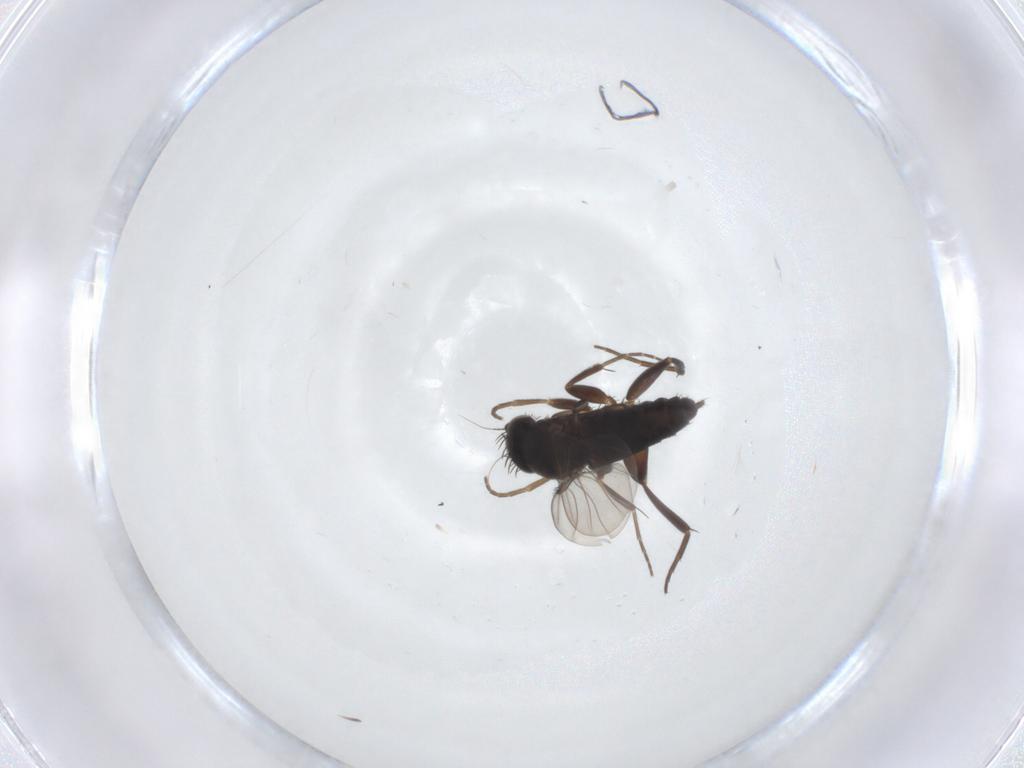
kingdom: Animalia
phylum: Arthropoda
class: Insecta
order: Diptera
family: Phoridae
